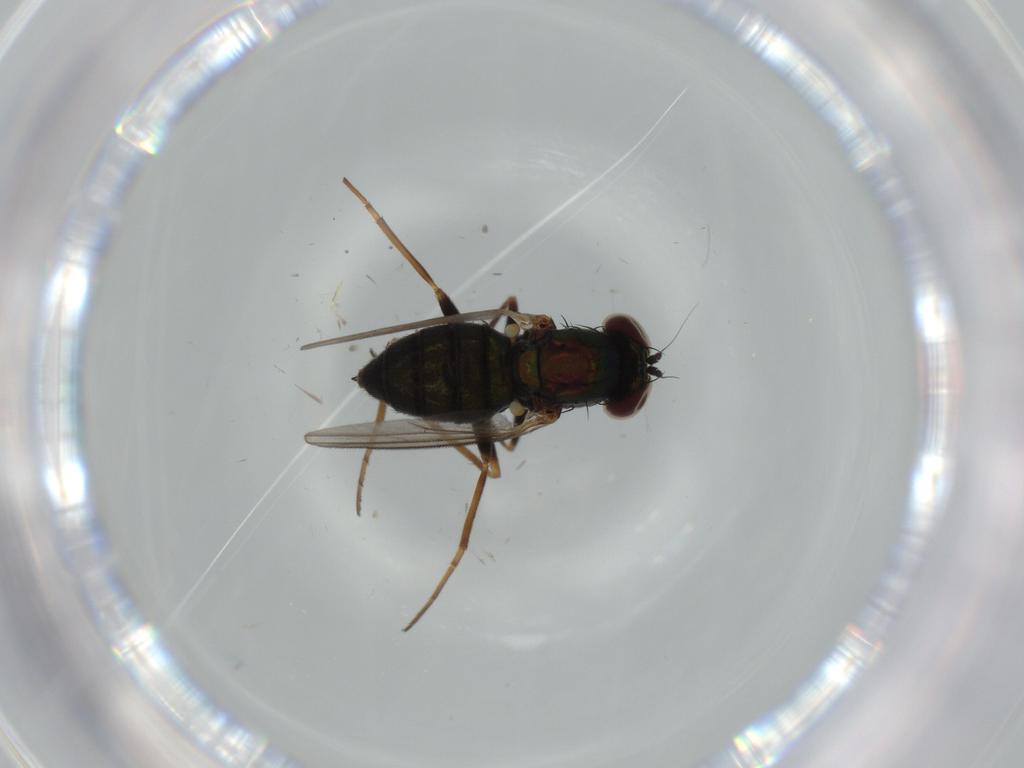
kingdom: Animalia
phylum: Arthropoda
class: Insecta
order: Diptera
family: Dolichopodidae
